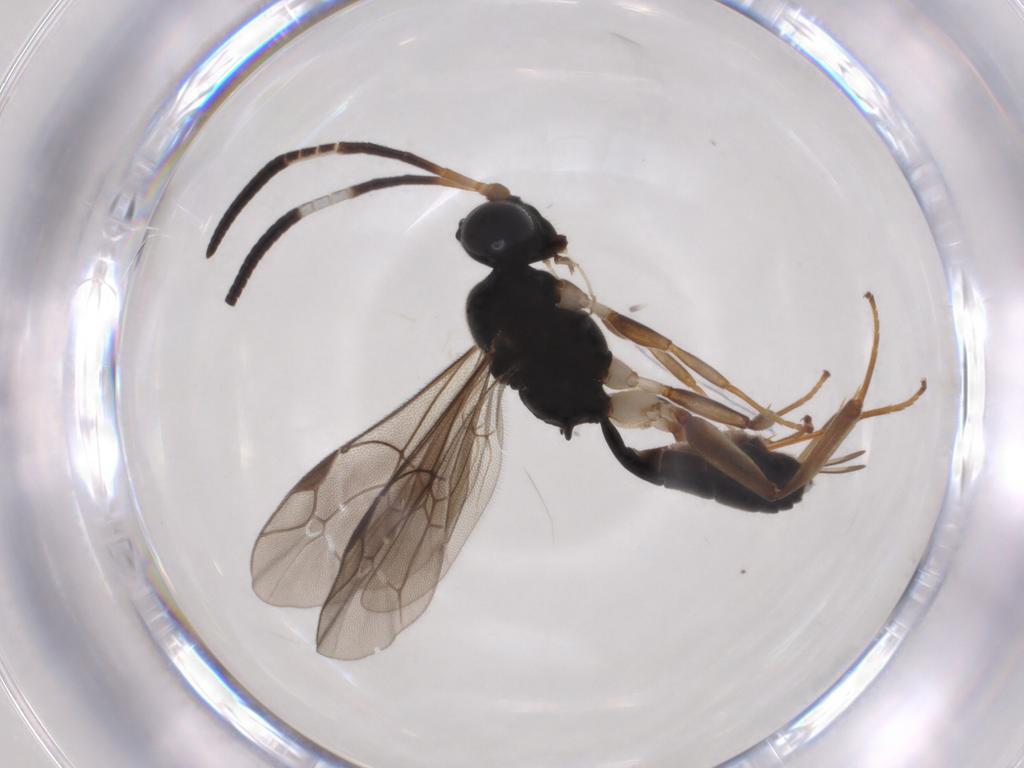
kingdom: Animalia
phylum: Arthropoda
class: Insecta
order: Hymenoptera
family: Ichneumonidae
